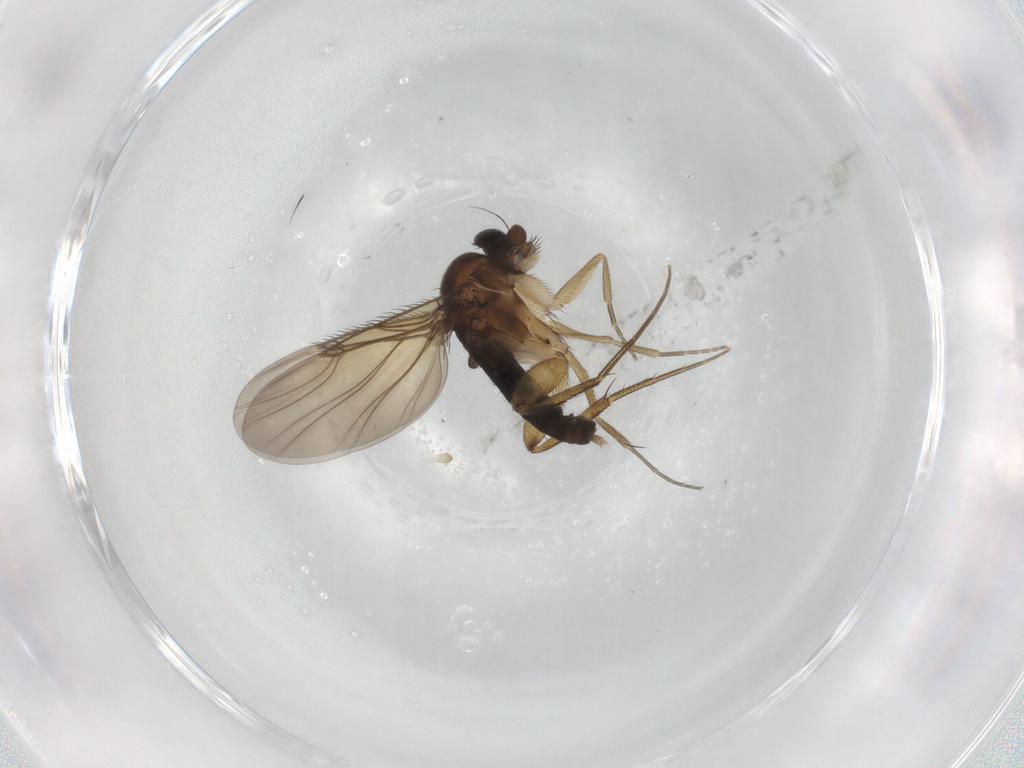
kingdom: Animalia
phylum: Arthropoda
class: Insecta
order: Diptera
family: Phoridae
